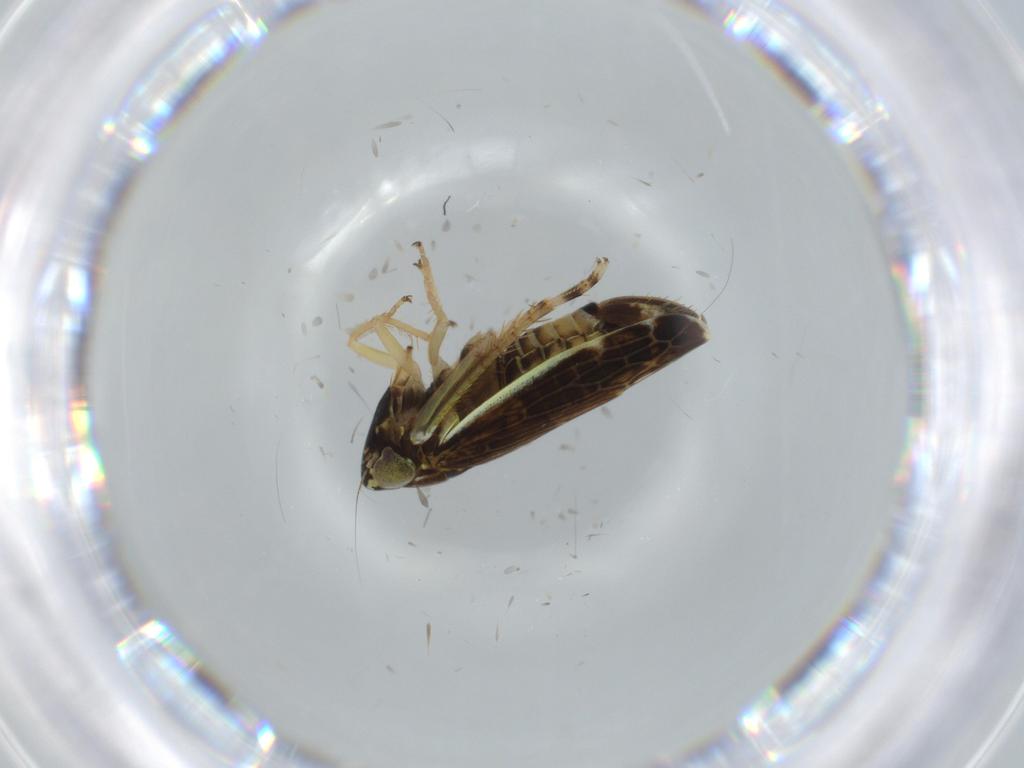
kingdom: Animalia
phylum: Arthropoda
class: Insecta
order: Hemiptera
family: Cicadellidae
